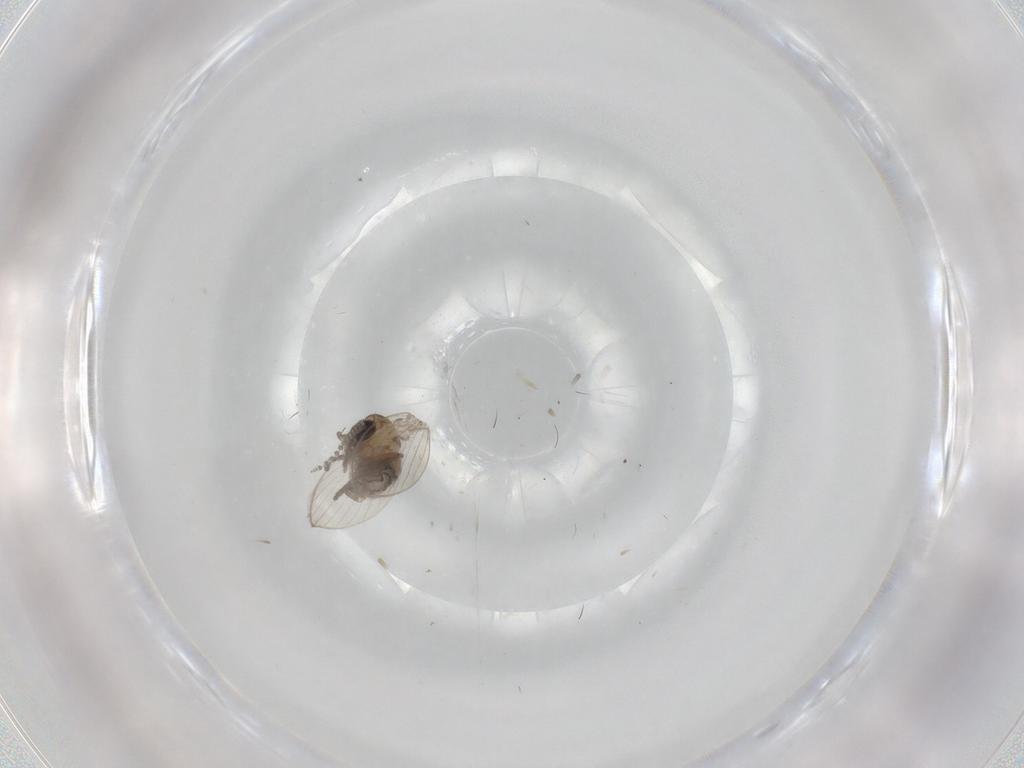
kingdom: Animalia
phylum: Arthropoda
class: Insecta
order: Diptera
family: Psychodidae
